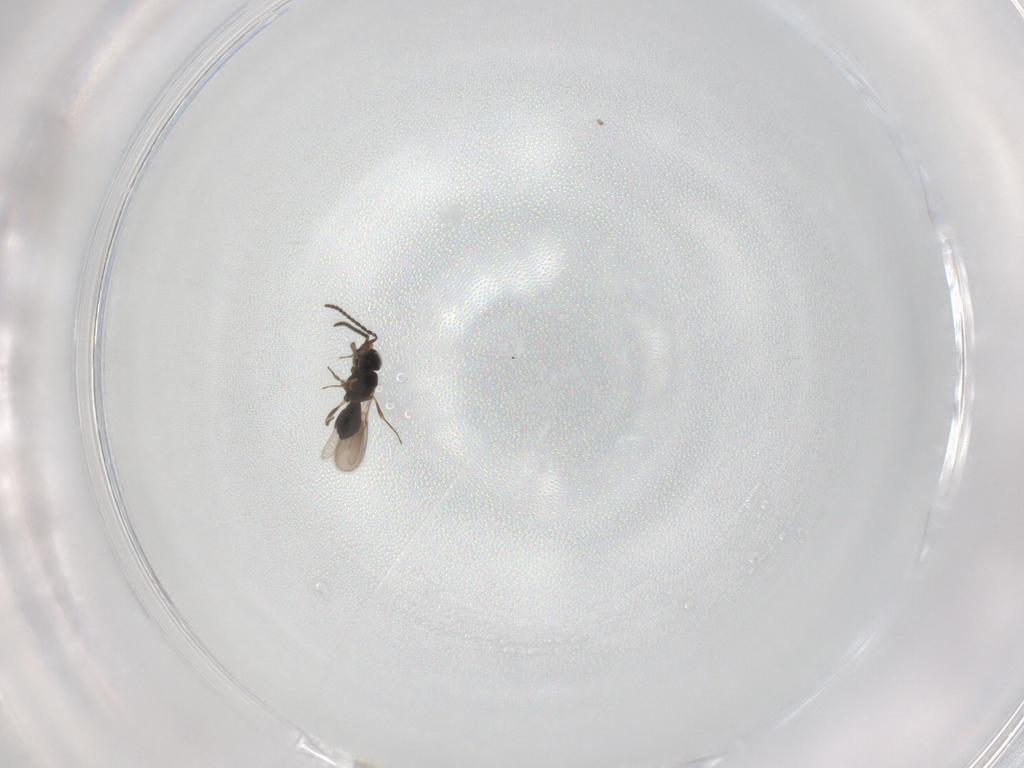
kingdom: Animalia
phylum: Arthropoda
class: Insecta
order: Hymenoptera
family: Scelionidae
